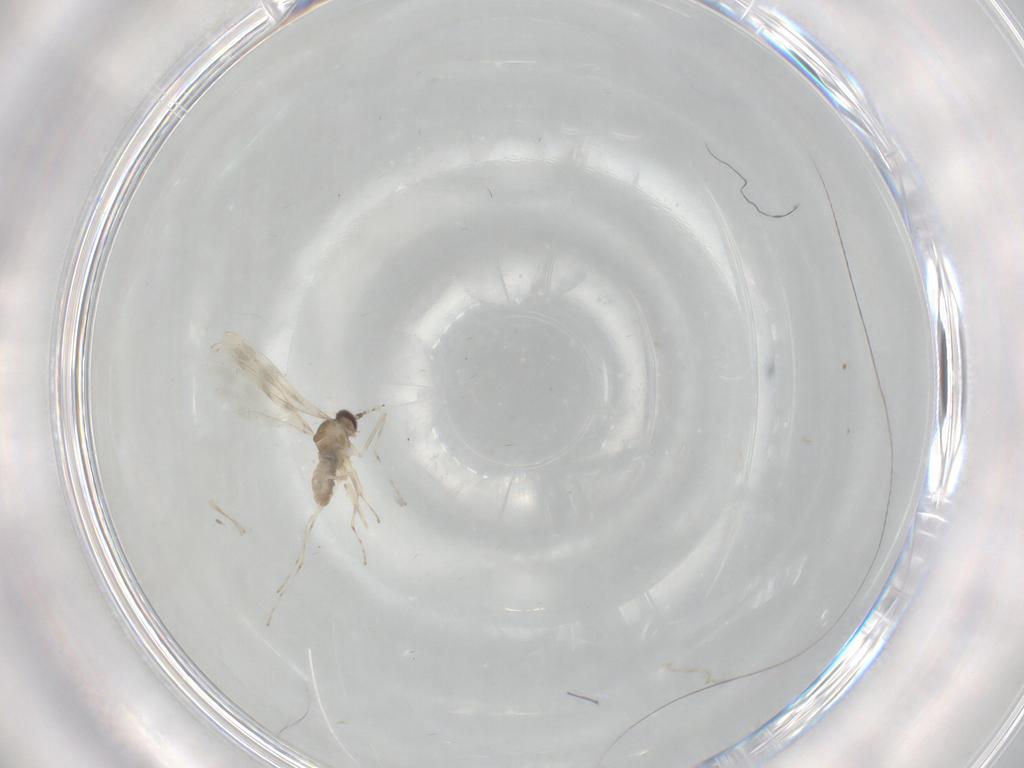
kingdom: Animalia
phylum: Arthropoda
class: Insecta
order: Diptera
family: Cecidomyiidae
